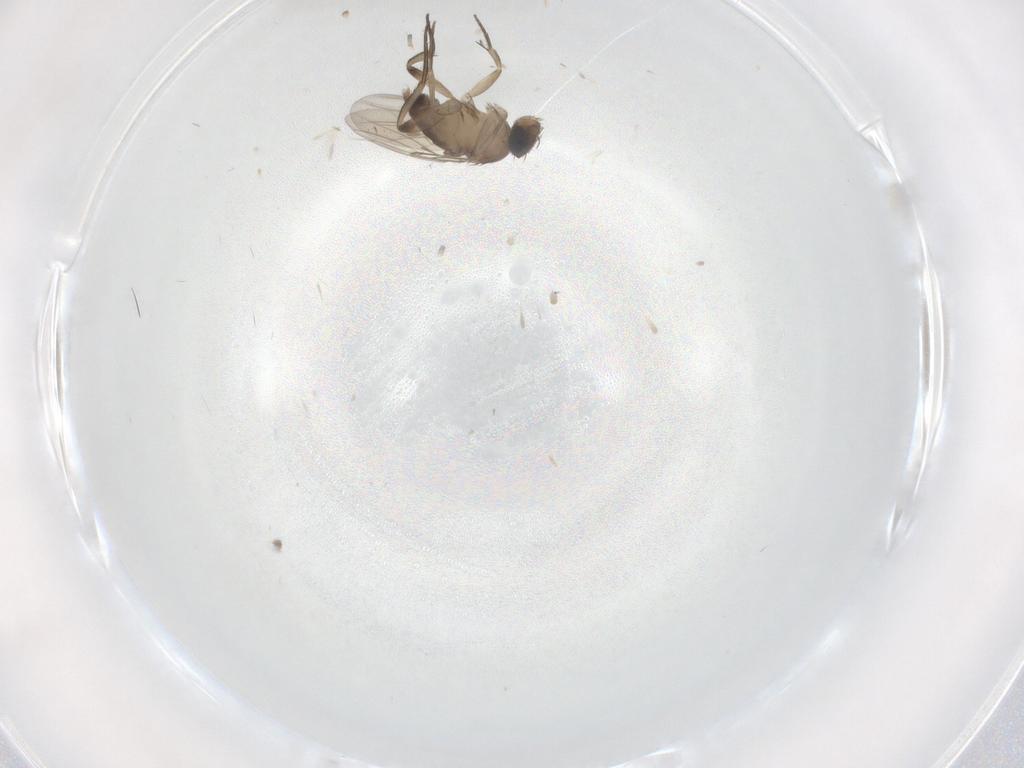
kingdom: Animalia
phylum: Arthropoda
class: Insecta
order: Diptera
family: Phoridae
